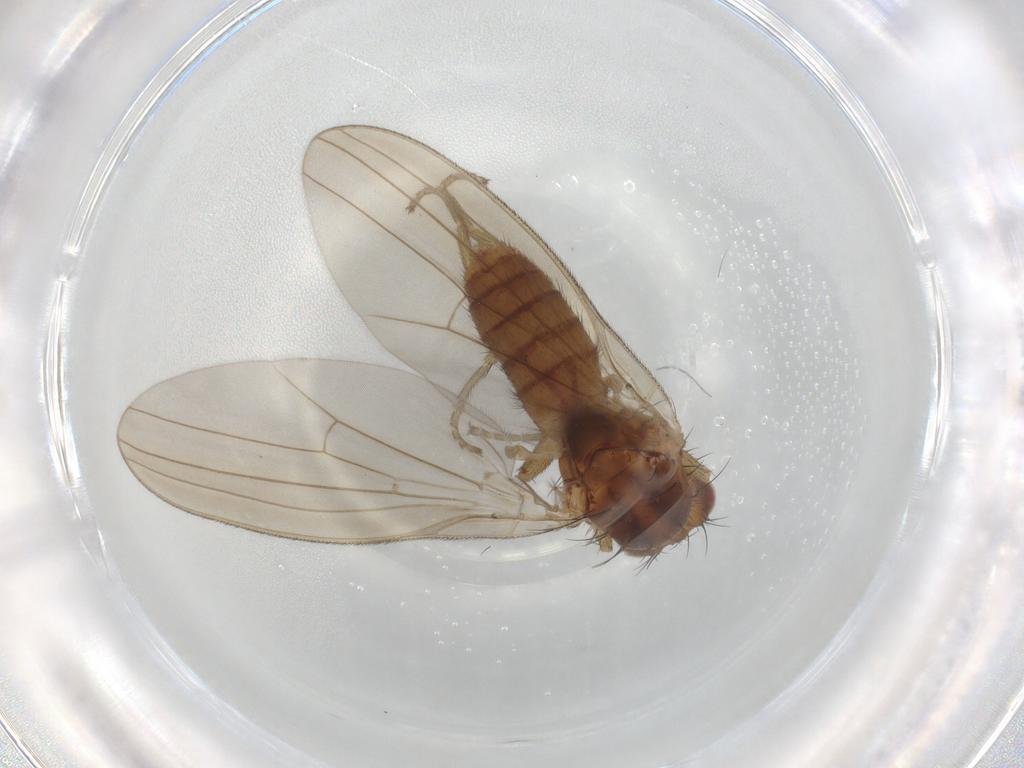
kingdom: Animalia
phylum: Arthropoda
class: Insecta
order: Diptera
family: Natalimyzidae
